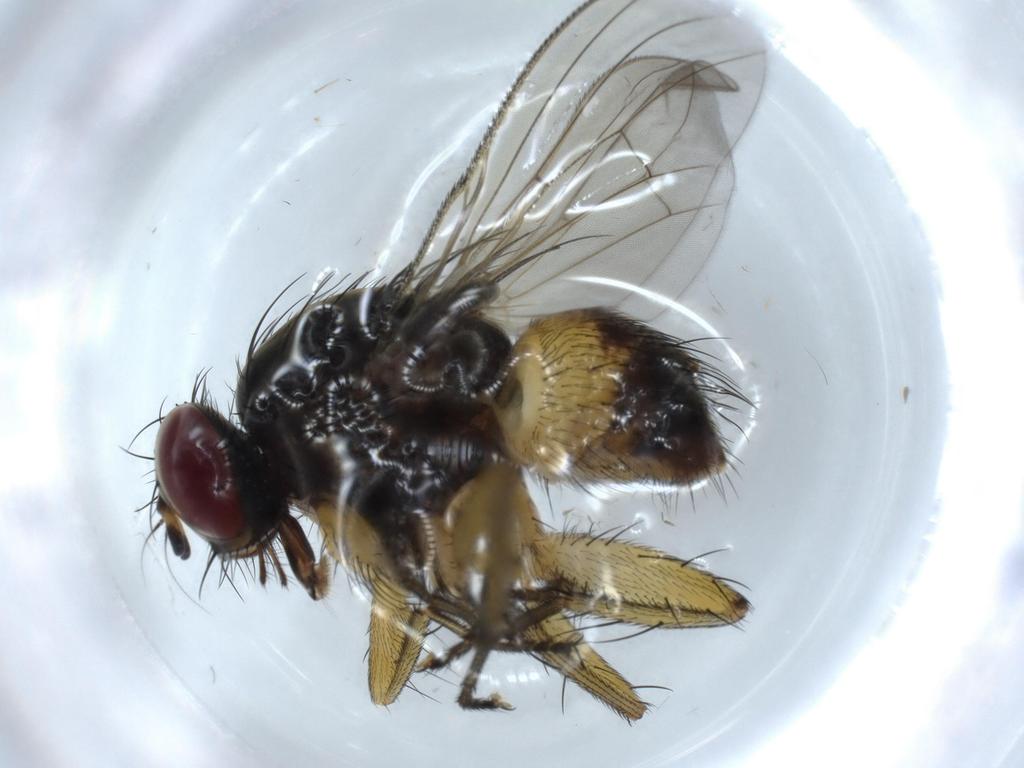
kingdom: Animalia
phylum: Arthropoda
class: Insecta
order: Diptera
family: Muscidae
